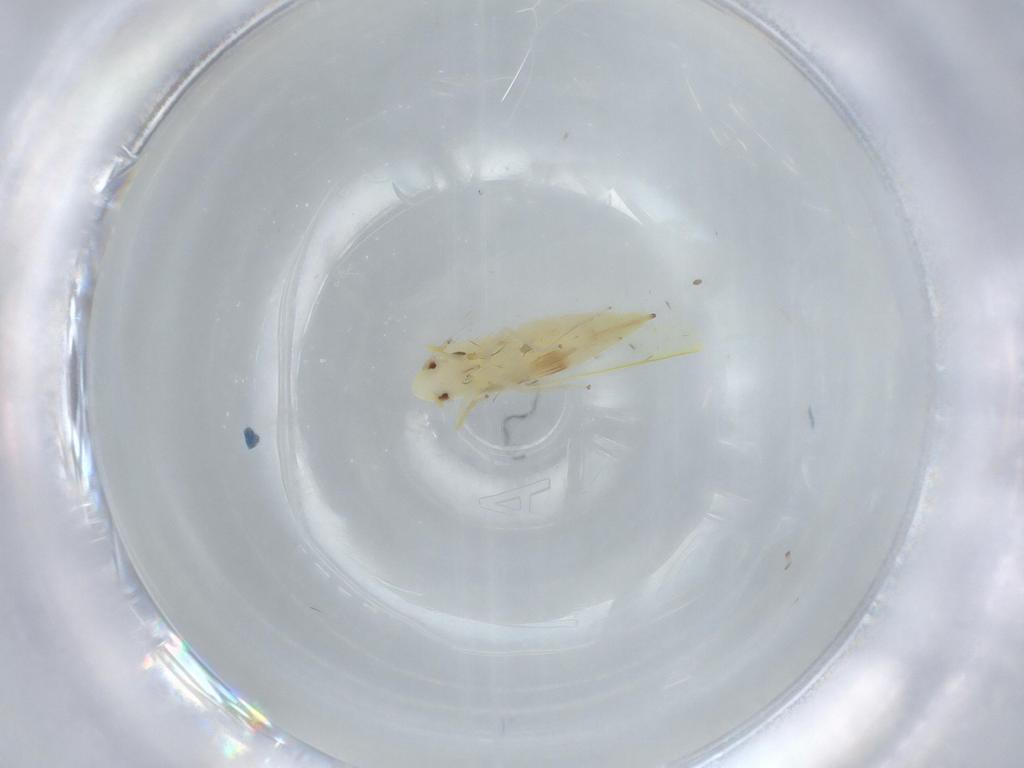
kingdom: Animalia
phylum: Arthropoda
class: Insecta
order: Hemiptera
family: Cicadellidae
